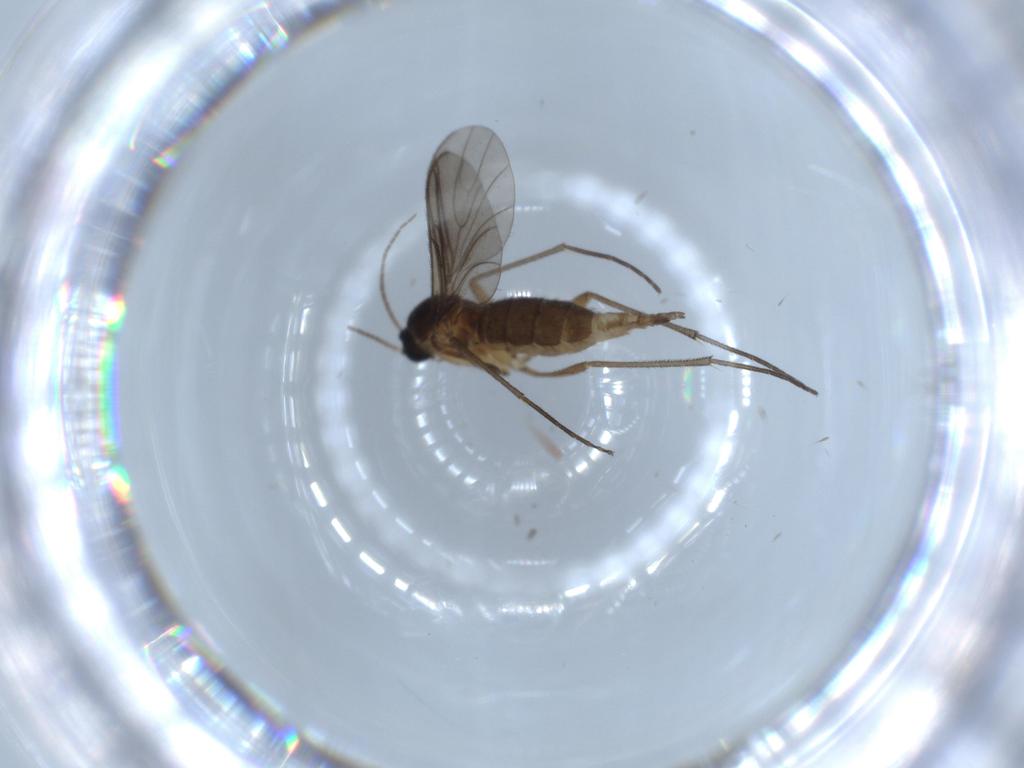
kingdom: Animalia
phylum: Arthropoda
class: Insecta
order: Diptera
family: Sciaridae
